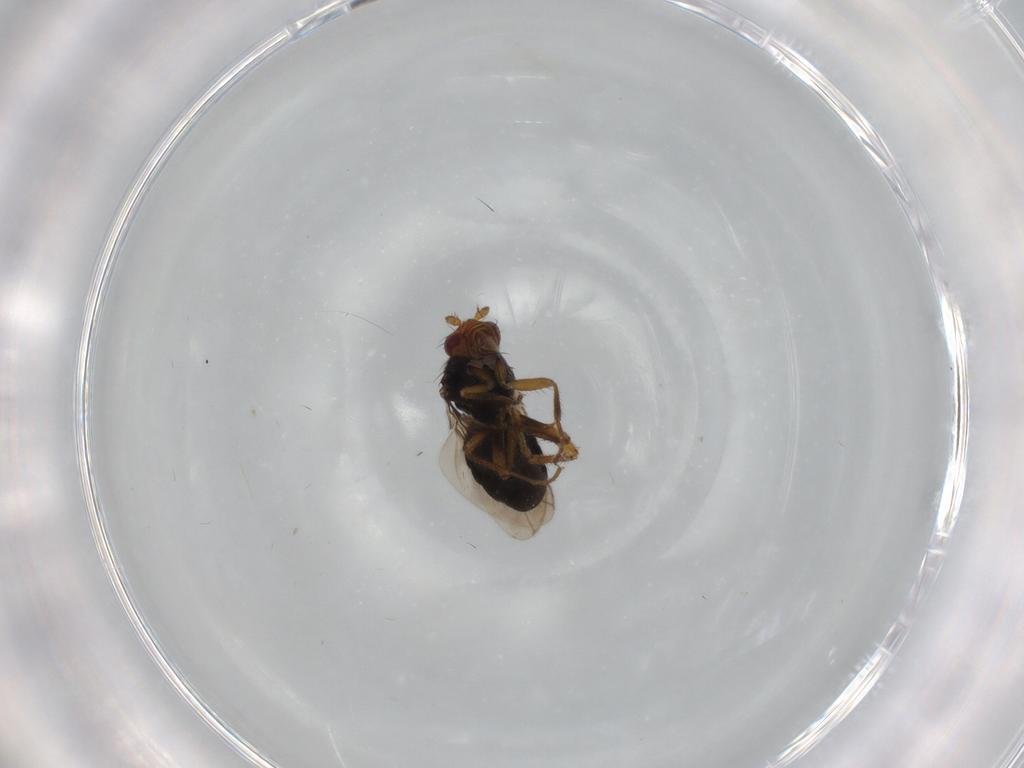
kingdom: Animalia
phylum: Arthropoda
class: Insecta
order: Diptera
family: Sphaeroceridae
